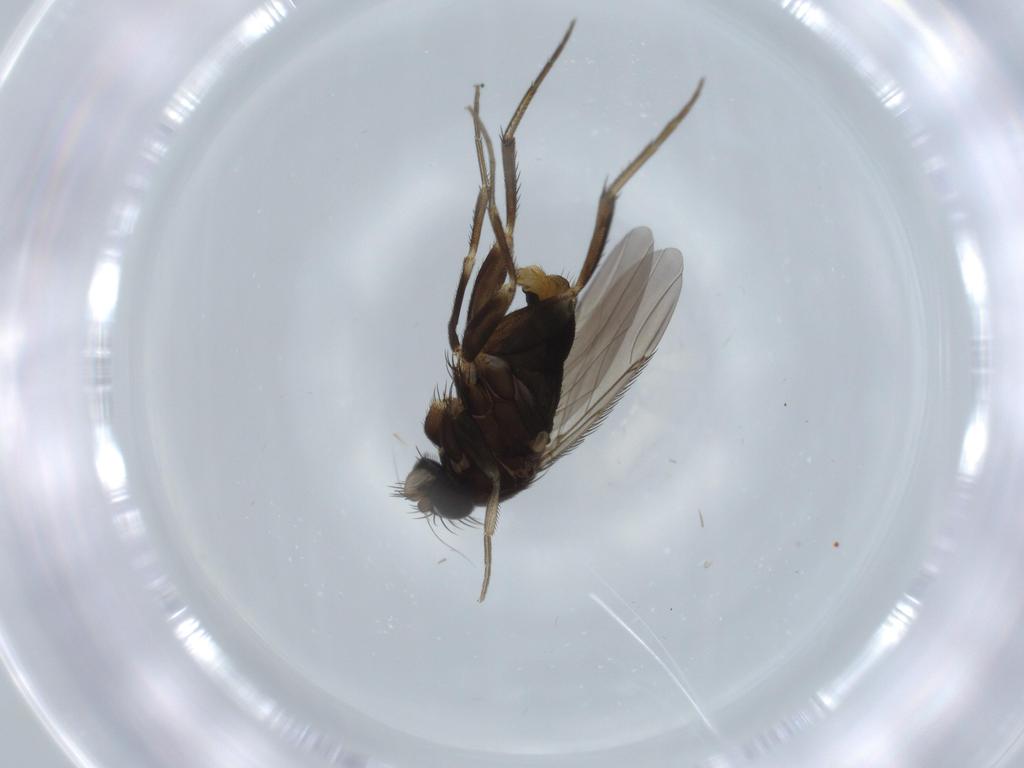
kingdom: Animalia
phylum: Arthropoda
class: Insecta
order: Diptera
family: Phoridae
